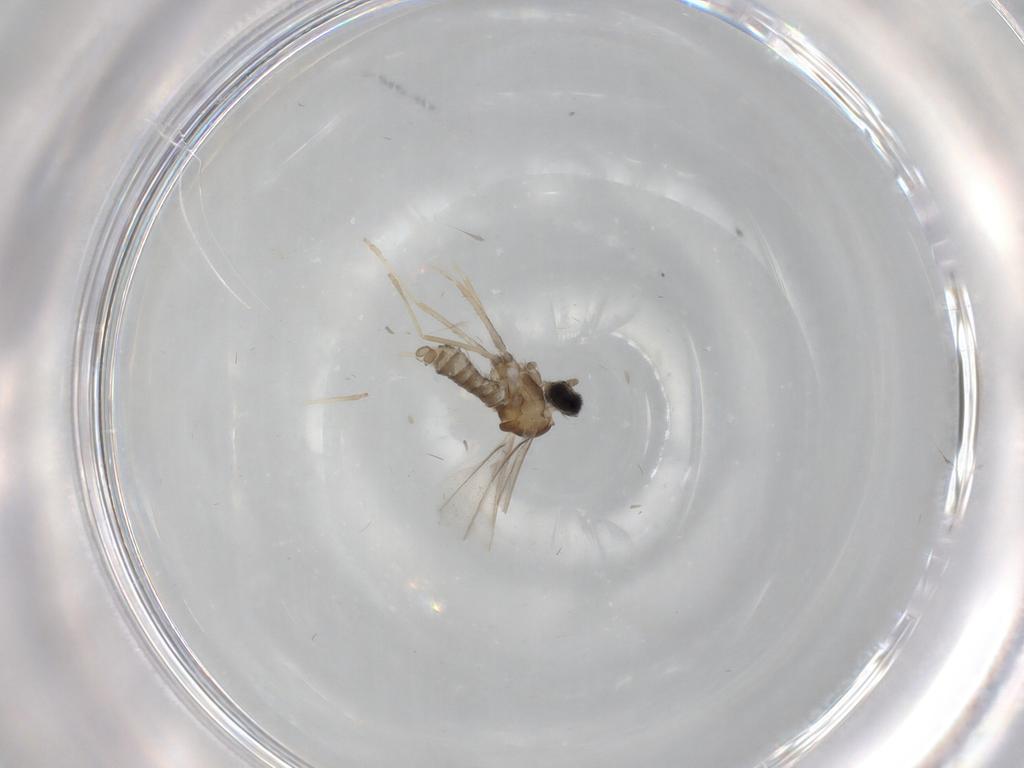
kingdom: Animalia
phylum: Arthropoda
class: Insecta
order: Diptera
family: Cecidomyiidae
